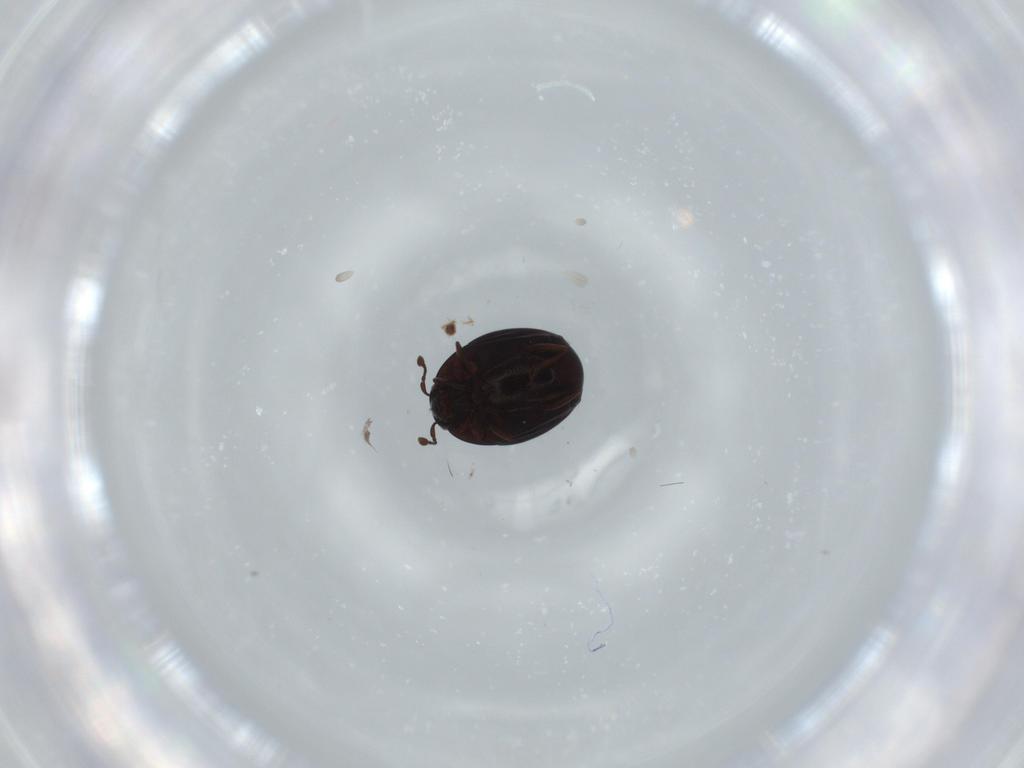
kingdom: Animalia
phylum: Arthropoda
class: Insecta
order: Coleoptera
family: Histeridae
